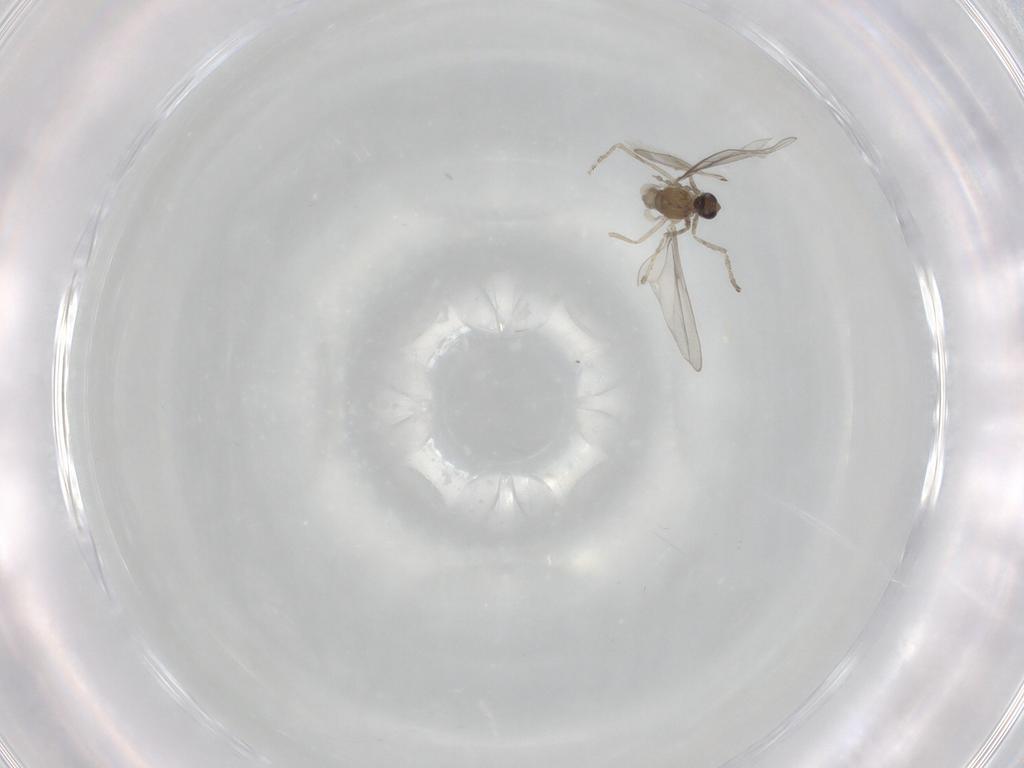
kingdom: Animalia
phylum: Arthropoda
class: Insecta
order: Diptera
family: Cecidomyiidae
